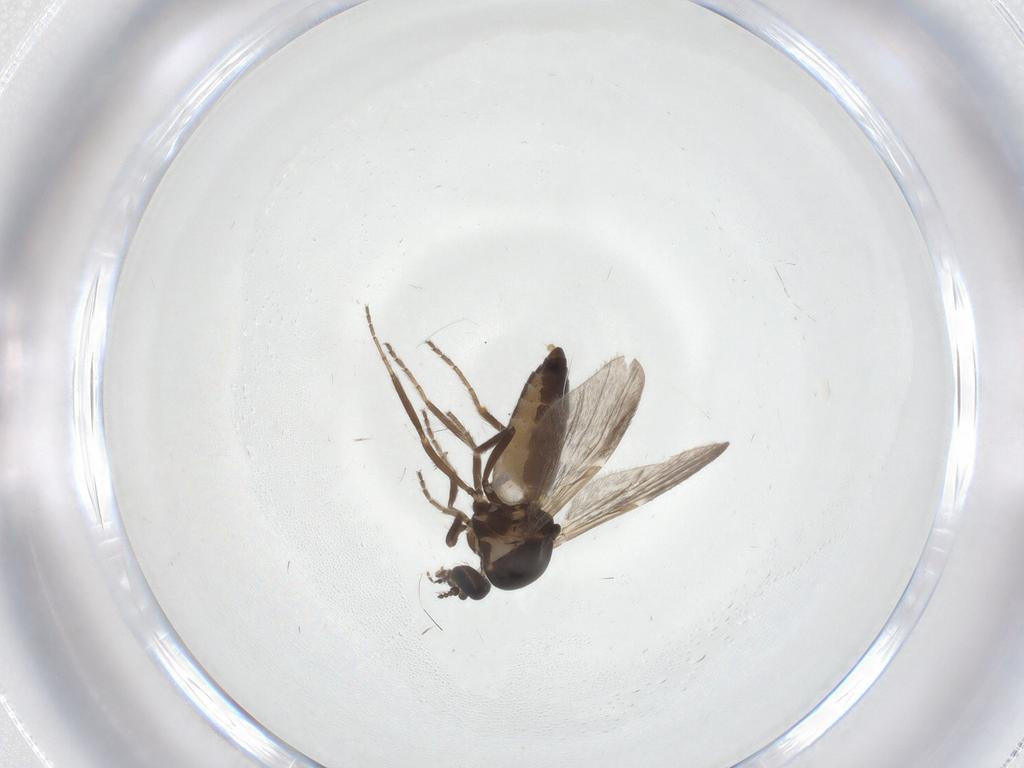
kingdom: Animalia
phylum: Arthropoda
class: Insecta
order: Diptera
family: Ceratopogonidae
